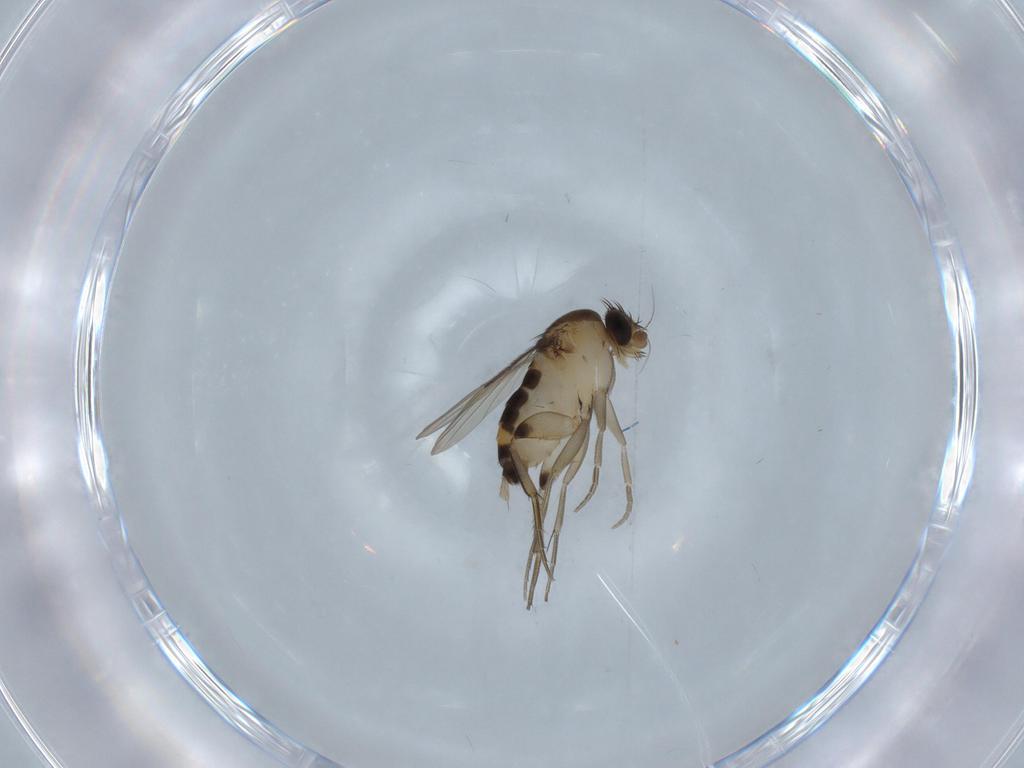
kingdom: Animalia
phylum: Arthropoda
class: Insecta
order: Diptera
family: Phoridae
